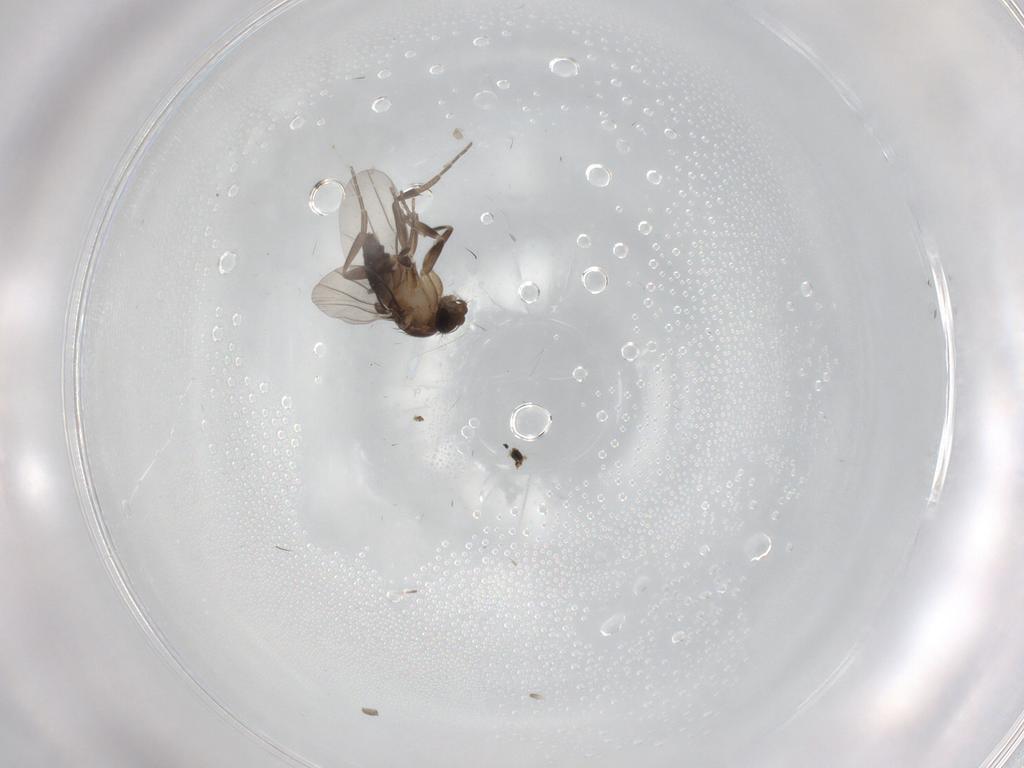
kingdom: Animalia
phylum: Arthropoda
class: Insecta
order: Diptera
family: Cecidomyiidae
